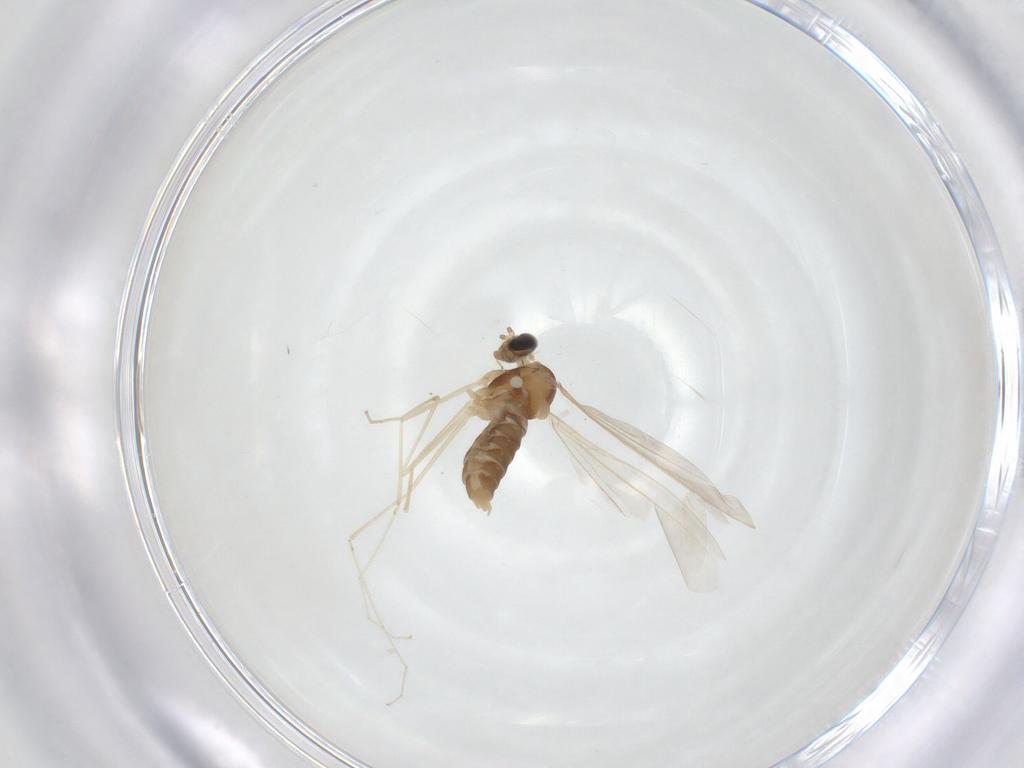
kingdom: Animalia
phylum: Arthropoda
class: Insecta
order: Diptera
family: Cecidomyiidae
